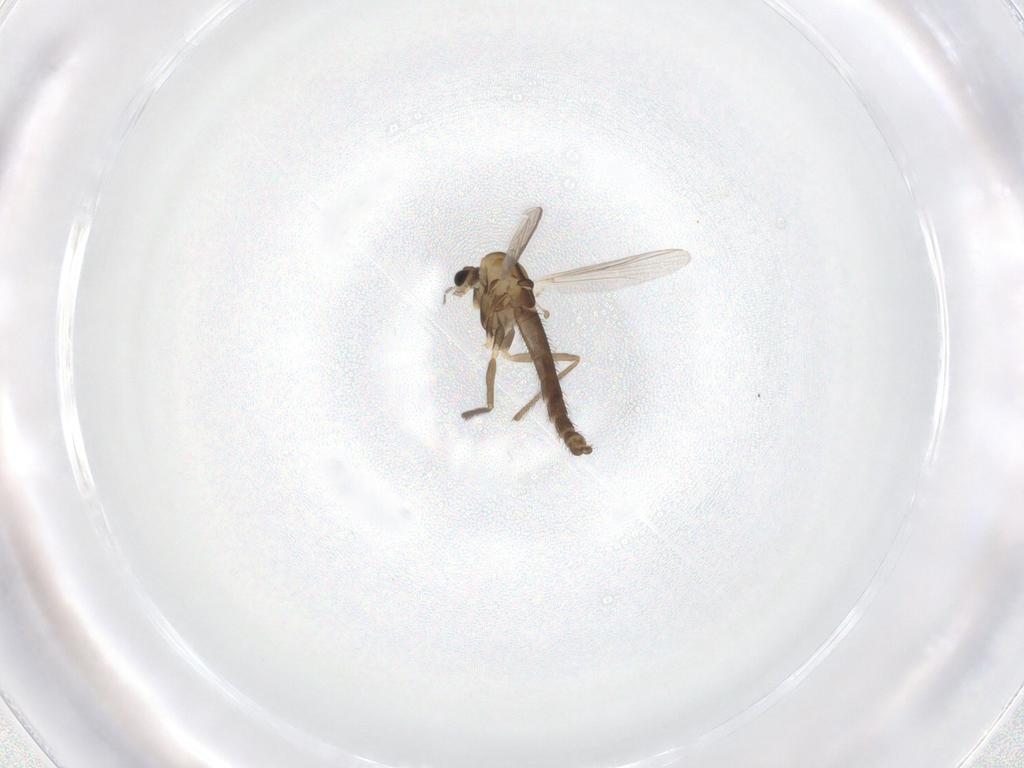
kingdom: Animalia
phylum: Arthropoda
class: Insecta
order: Diptera
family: Chironomidae
